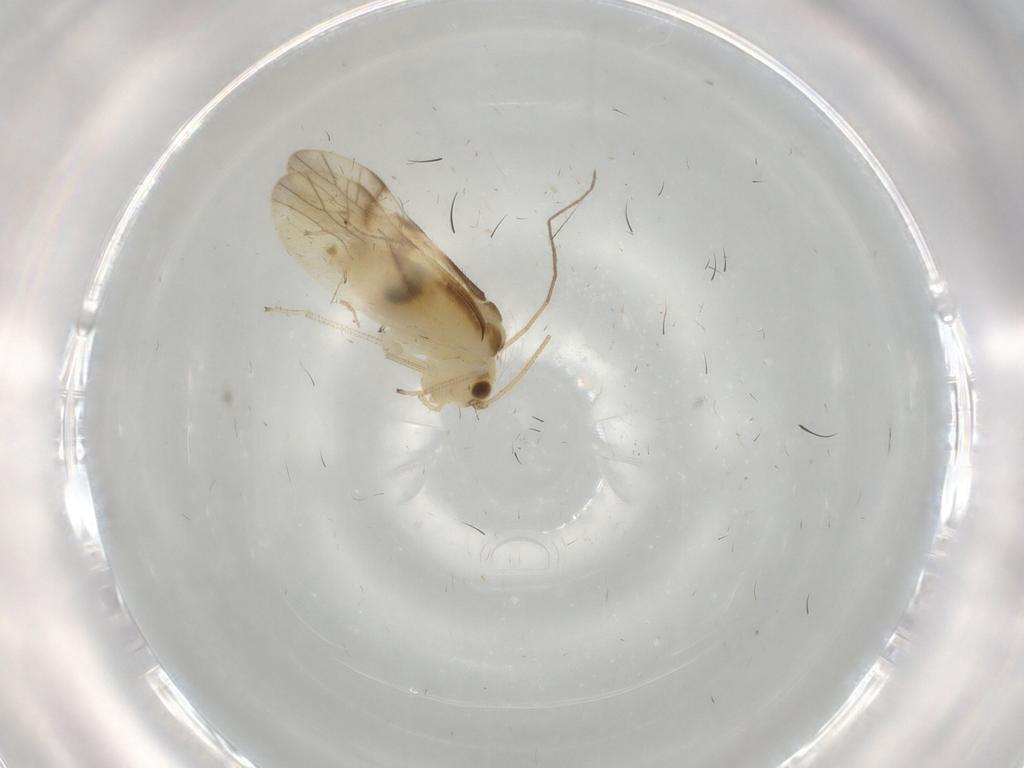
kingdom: Animalia
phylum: Arthropoda
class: Insecta
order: Psocodea
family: Caeciliusidae
